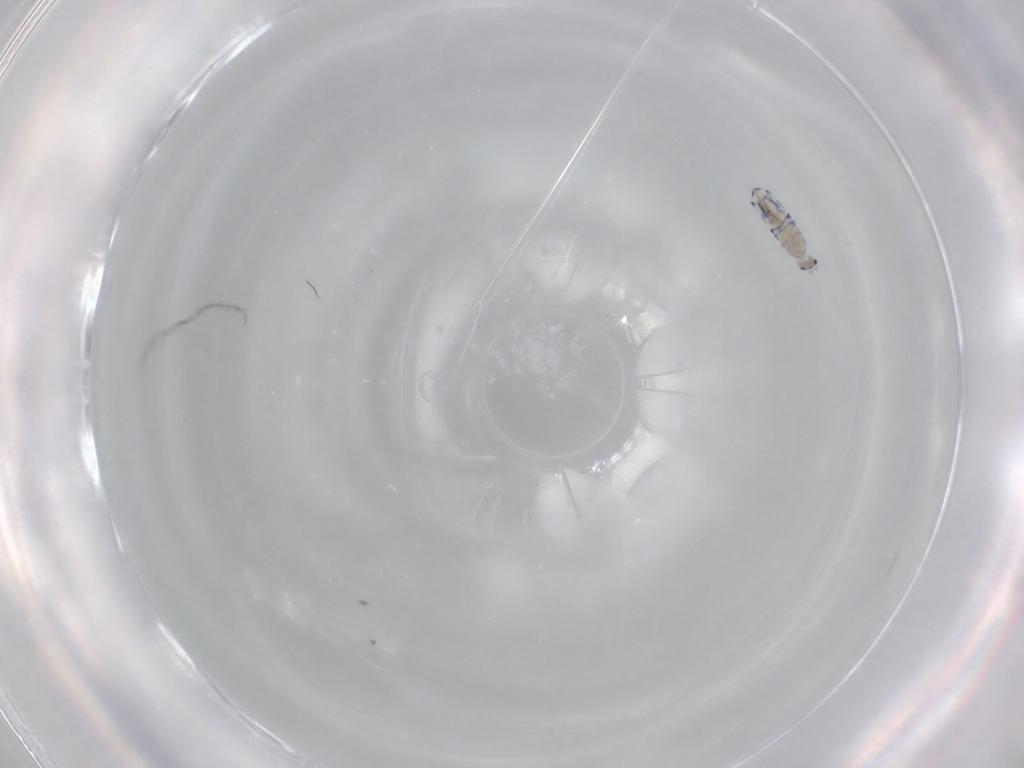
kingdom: Animalia
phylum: Arthropoda
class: Collembola
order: Entomobryomorpha
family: Entomobryidae
